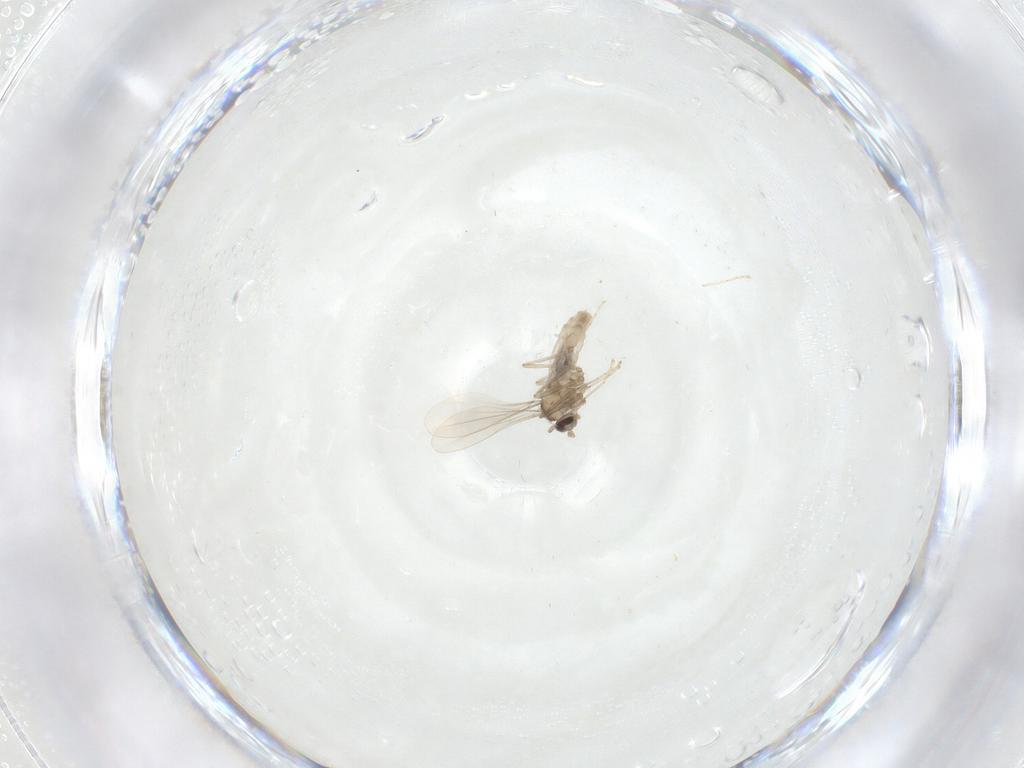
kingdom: Animalia
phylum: Arthropoda
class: Insecta
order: Diptera
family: Cecidomyiidae
